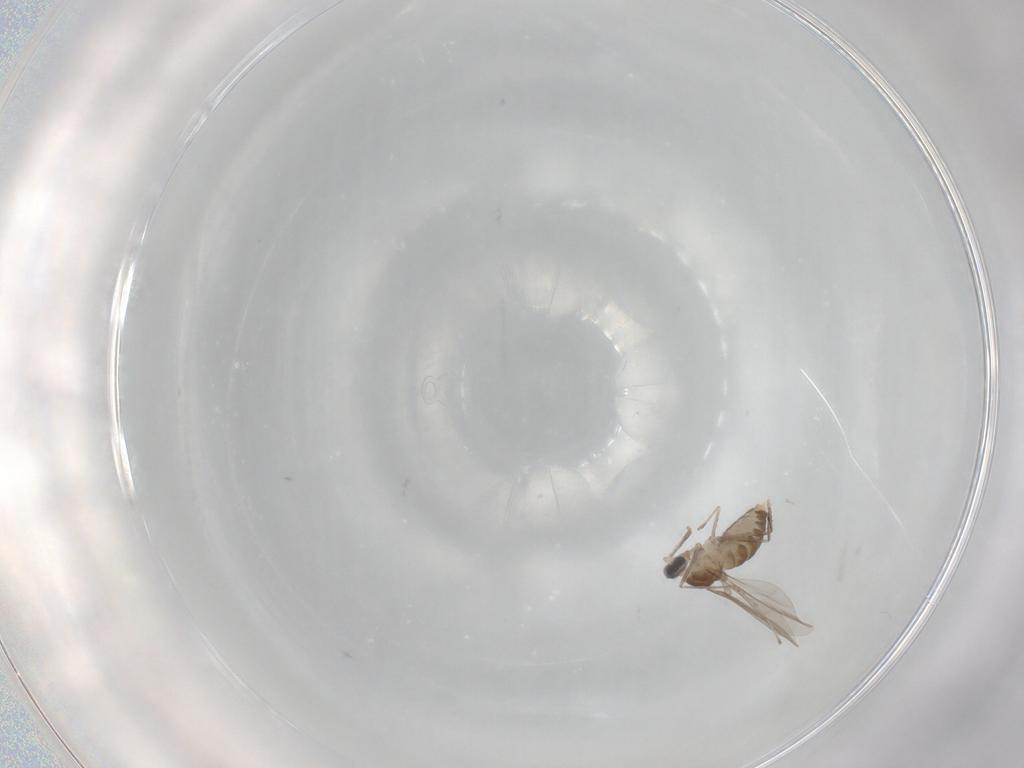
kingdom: Animalia
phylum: Arthropoda
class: Insecta
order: Diptera
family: Cecidomyiidae
